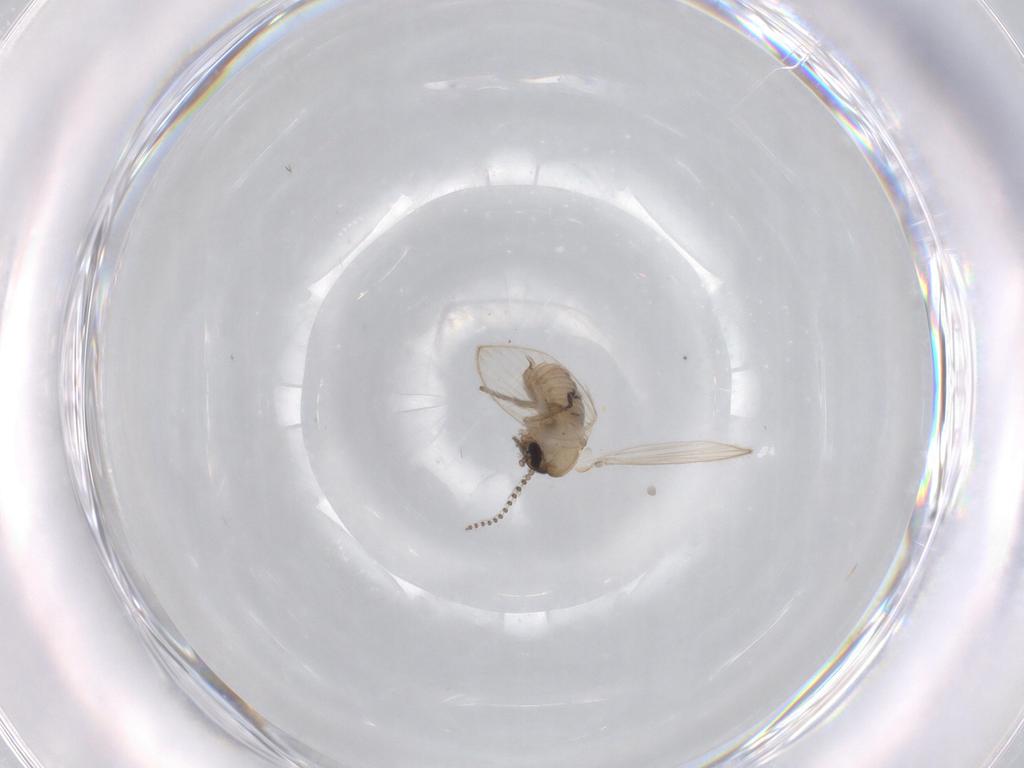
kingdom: Animalia
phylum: Arthropoda
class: Insecta
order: Diptera
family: Psychodidae
